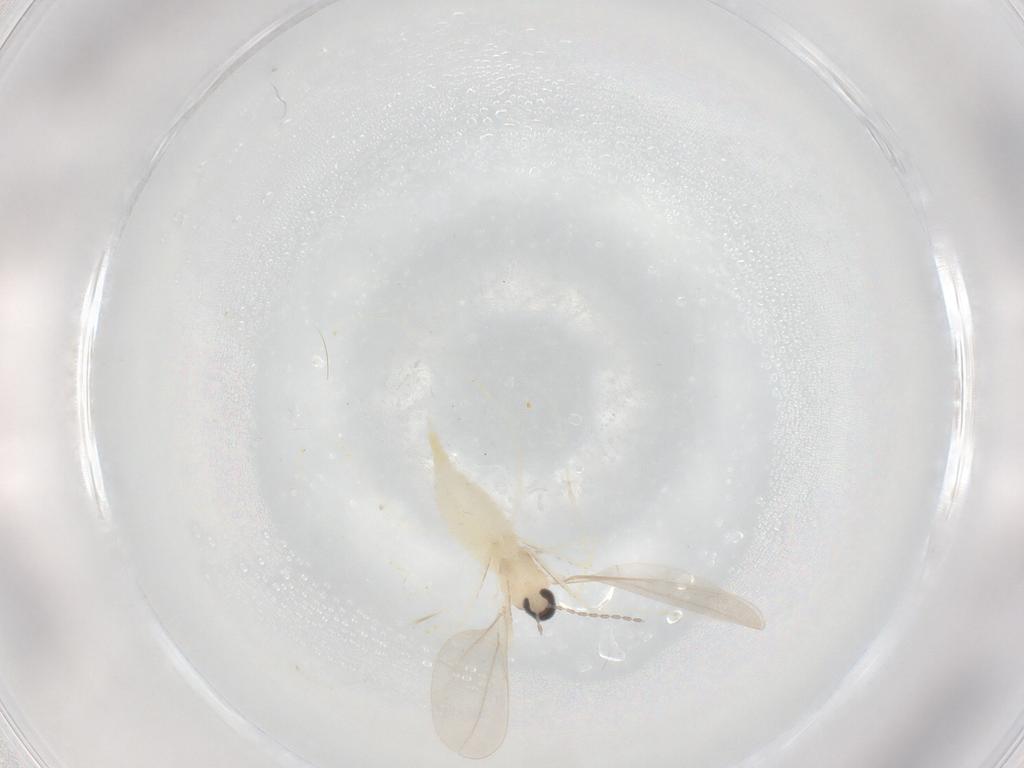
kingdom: Animalia
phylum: Arthropoda
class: Insecta
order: Diptera
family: Cecidomyiidae
